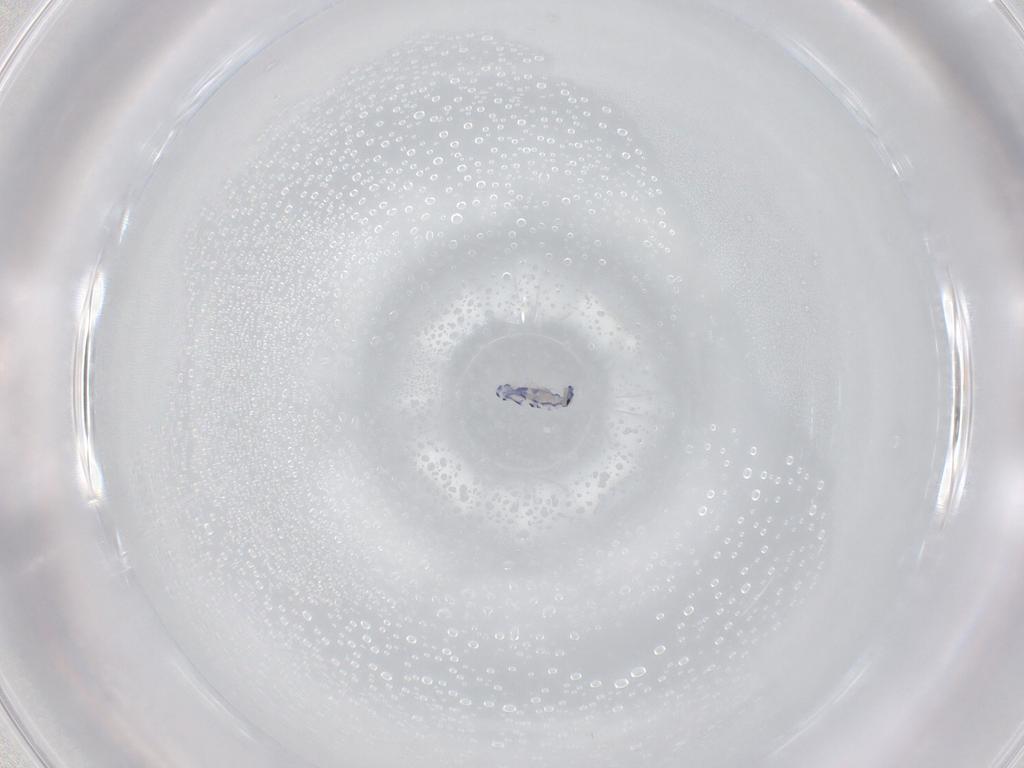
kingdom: Animalia
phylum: Arthropoda
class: Collembola
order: Entomobryomorpha
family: Entomobryidae
